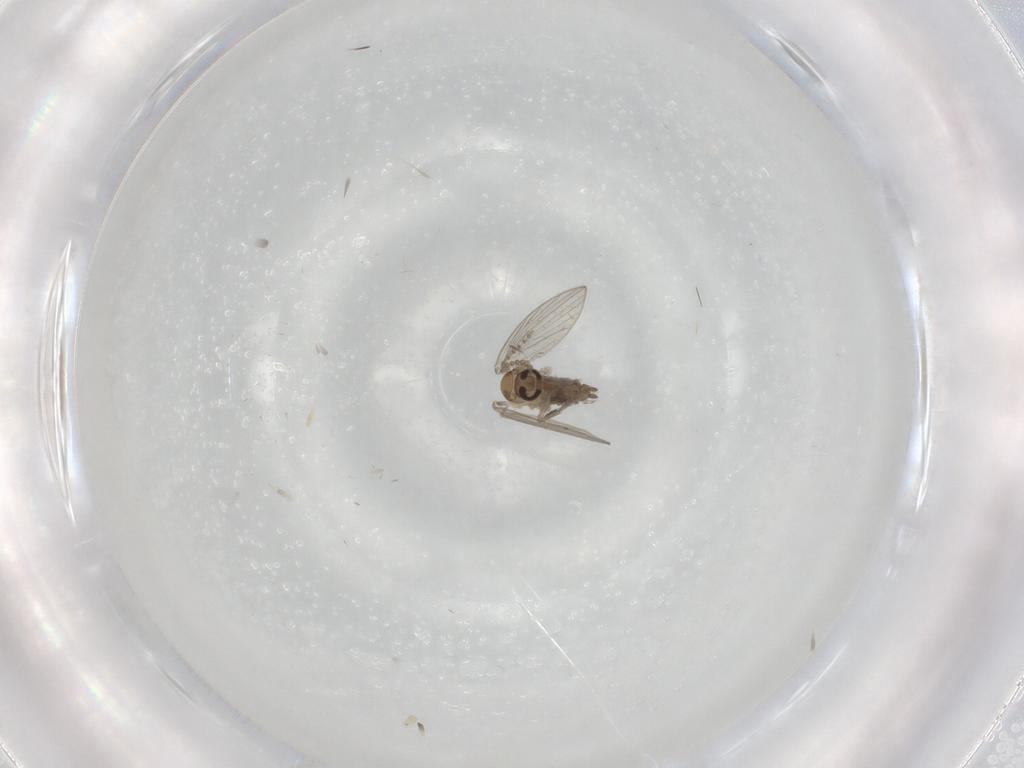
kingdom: Animalia
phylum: Arthropoda
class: Insecta
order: Diptera
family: Psychodidae
